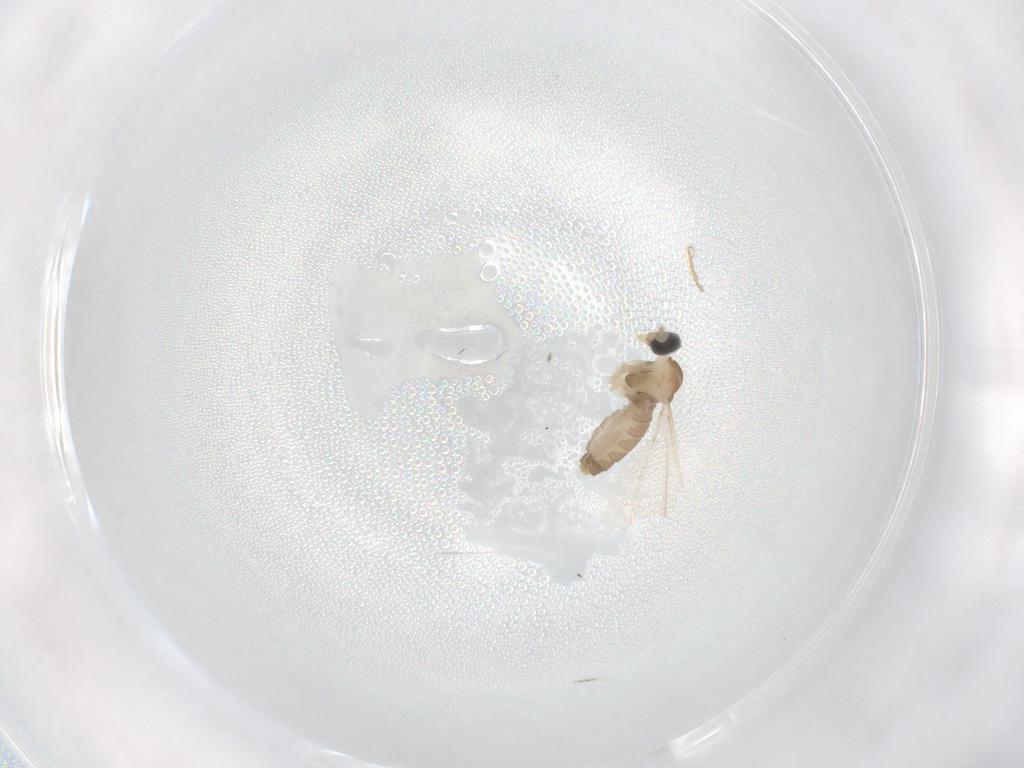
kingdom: Animalia
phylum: Arthropoda
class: Insecta
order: Diptera
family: Cecidomyiidae
